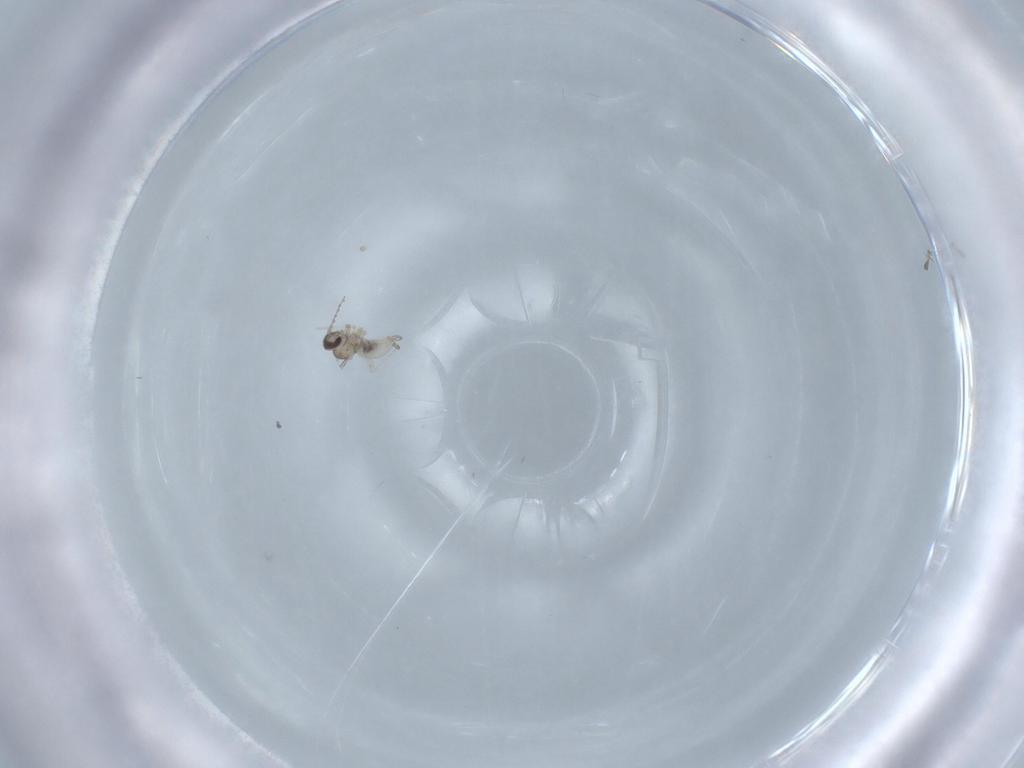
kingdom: Animalia
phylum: Arthropoda
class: Insecta
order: Diptera
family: Cecidomyiidae
